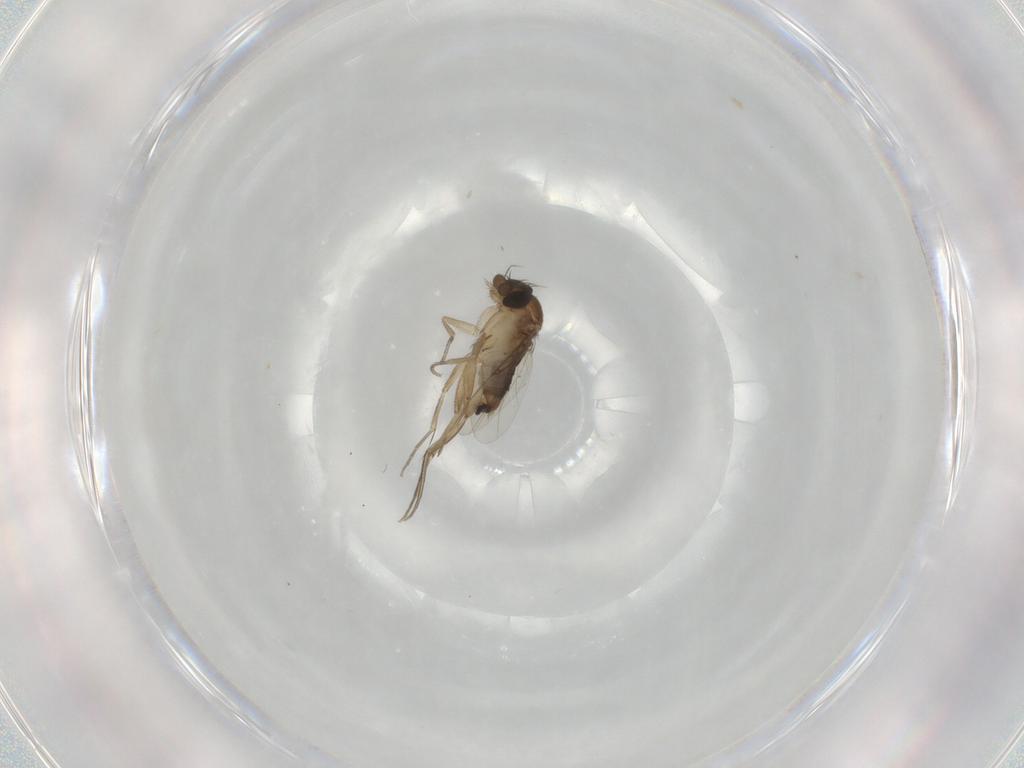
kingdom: Animalia
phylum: Arthropoda
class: Insecta
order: Diptera
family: Phoridae
